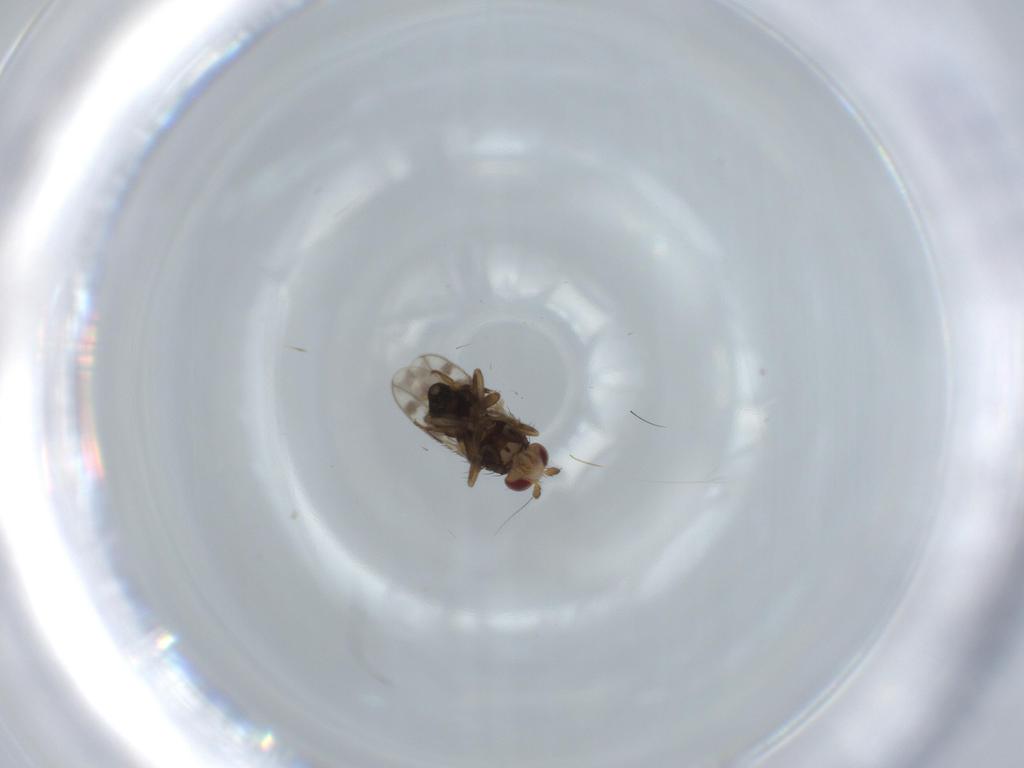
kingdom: Animalia
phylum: Arthropoda
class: Insecta
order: Diptera
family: Sphaeroceridae
